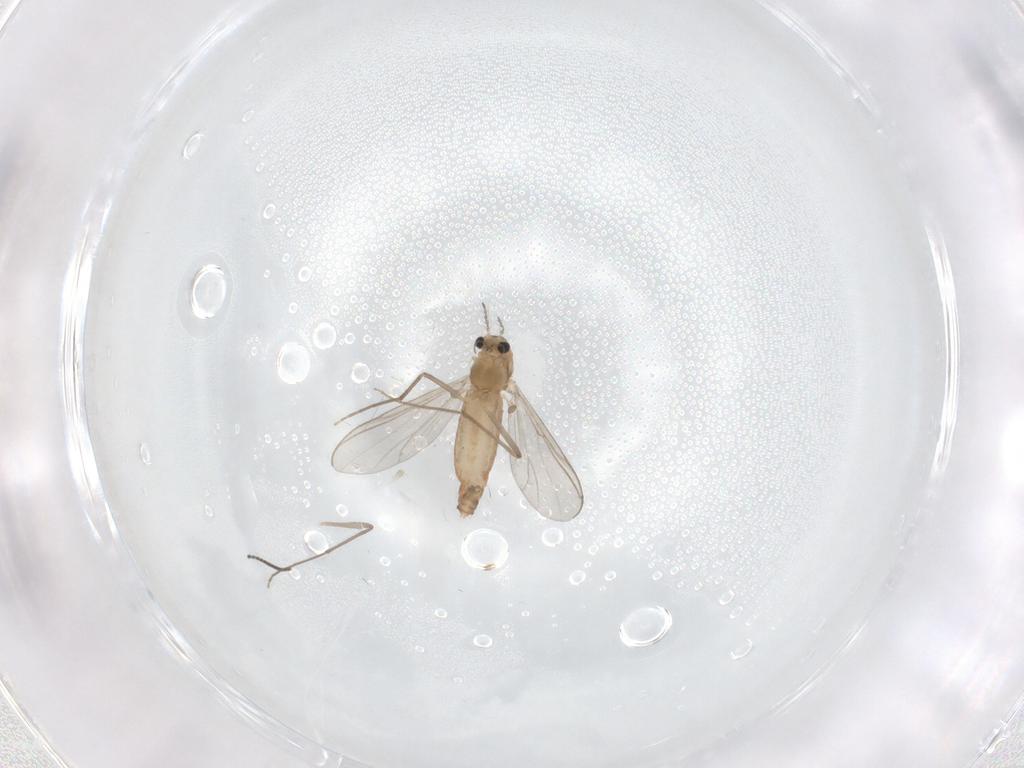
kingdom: Animalia
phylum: Arthropoda
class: Insecta
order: Diptera
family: Chironomidae
